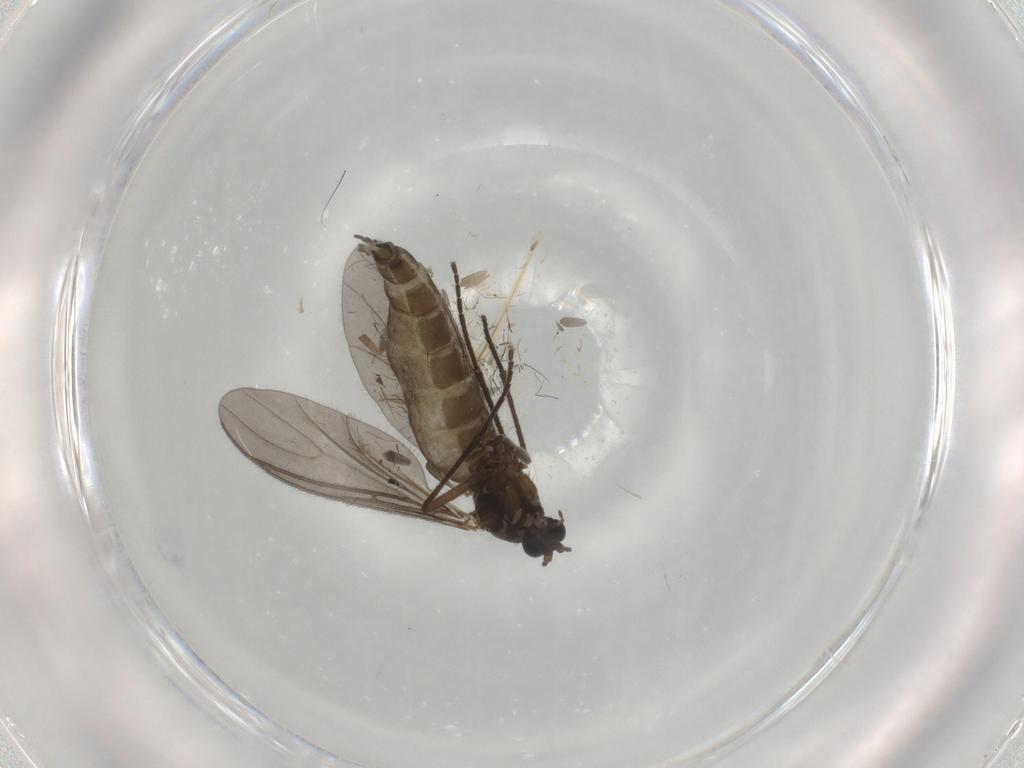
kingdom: Animalia
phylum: Arthropoda
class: Insecta
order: Diptera
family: Sciaridae
